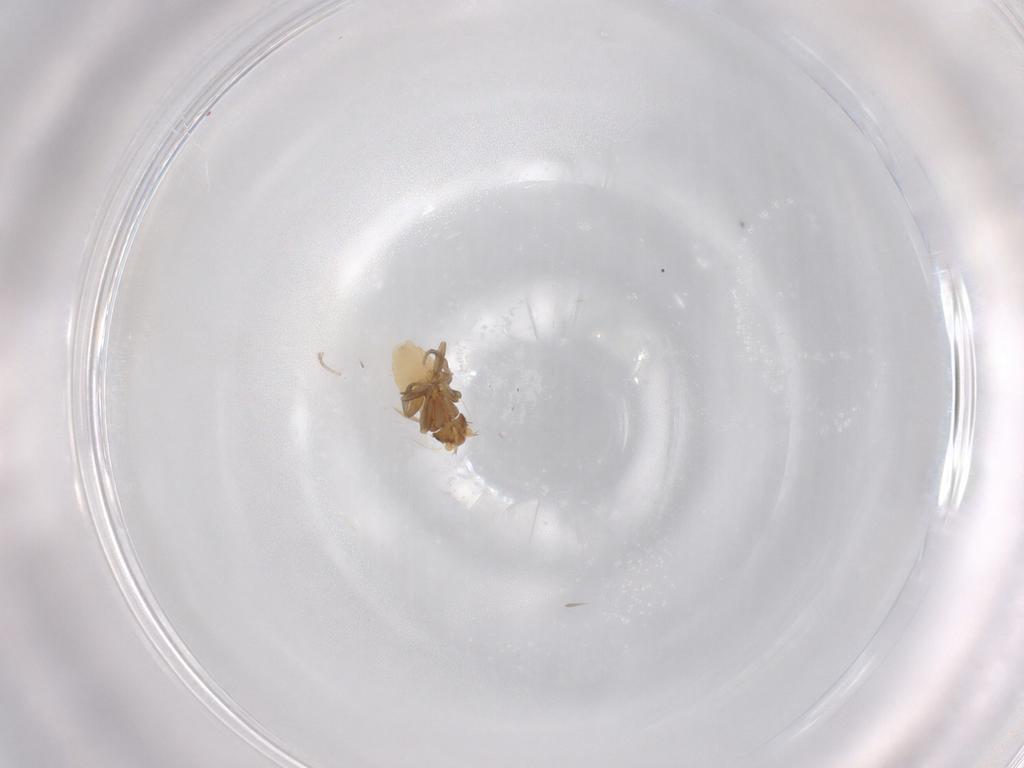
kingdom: Animalia
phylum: Arthropoda
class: Insecta
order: Diptera
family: Phoridae
